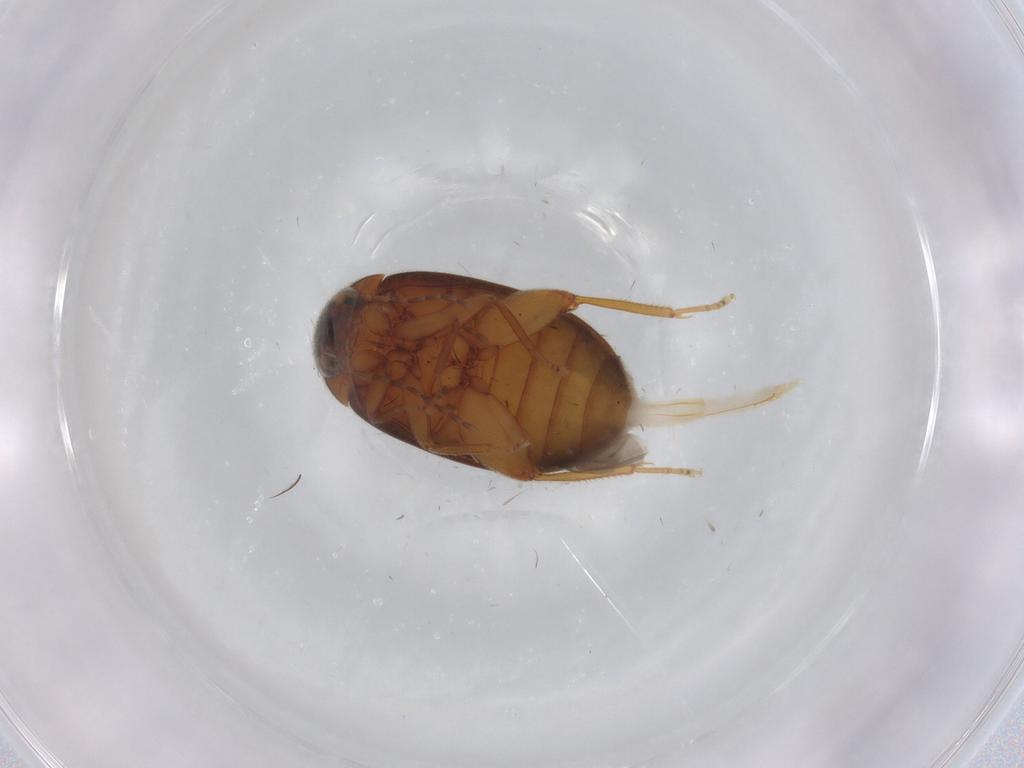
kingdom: Animalia
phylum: Arthropoda
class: Insecta
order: Coleoptera
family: Scirtidae
